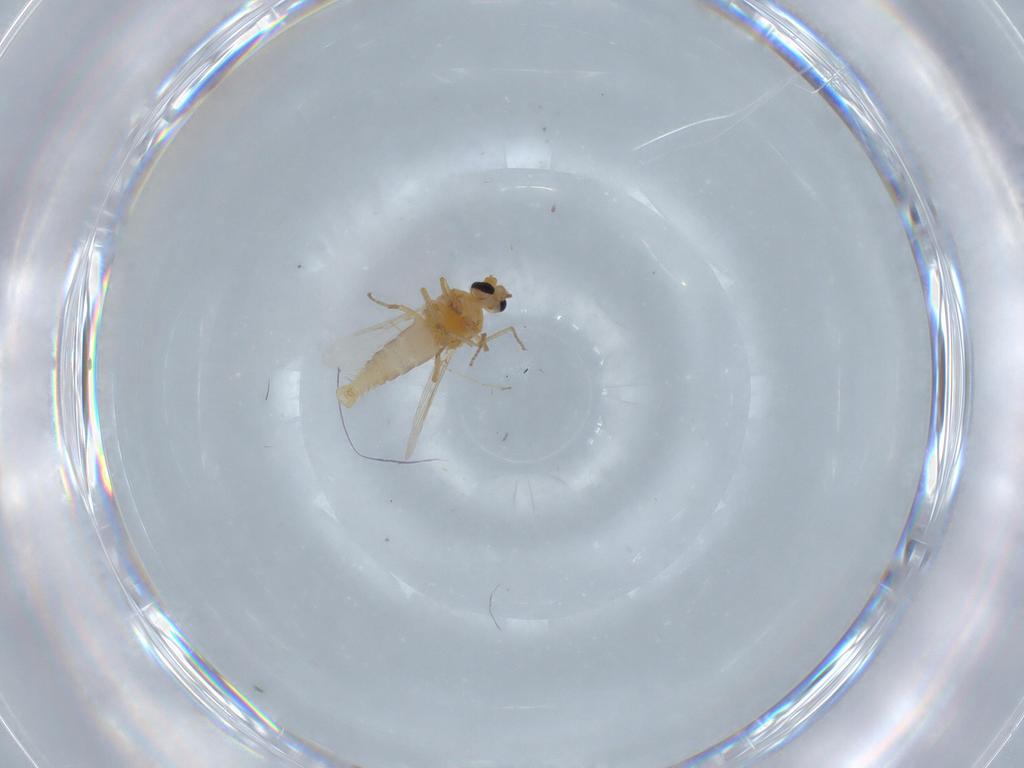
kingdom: Animalia
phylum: Arthropoda
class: Insecta
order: Diptera
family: Ceratopogonidae
